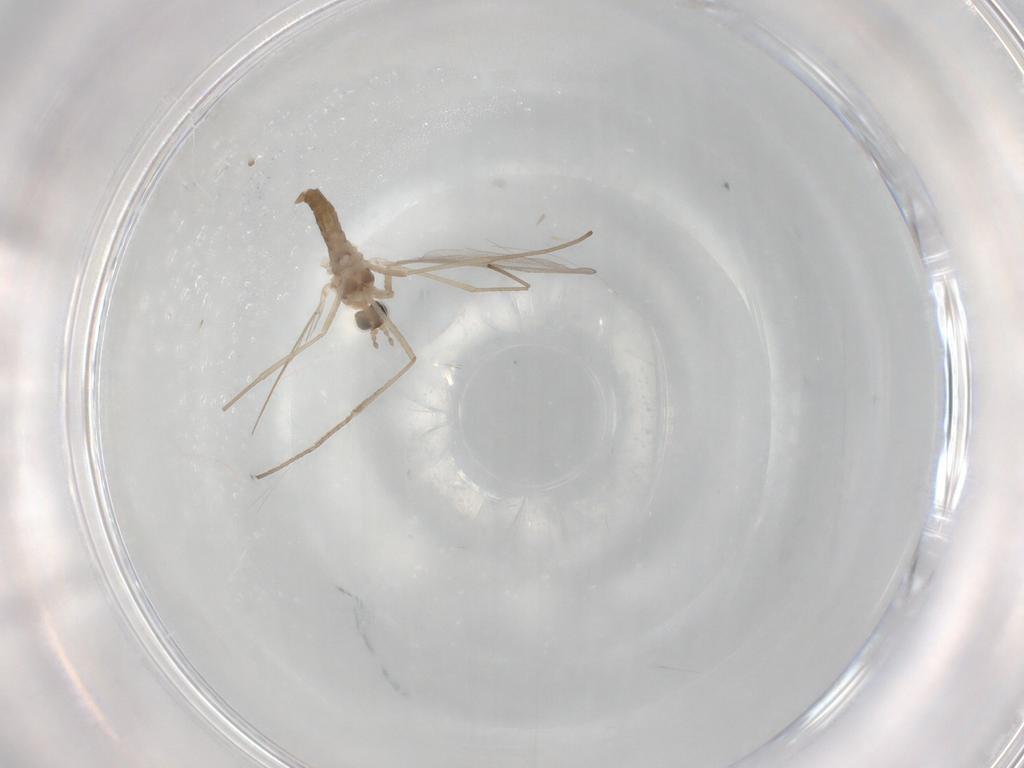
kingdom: Animalia
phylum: Arthropoda
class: Insecta
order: Diptera
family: Cecidomyiidae
